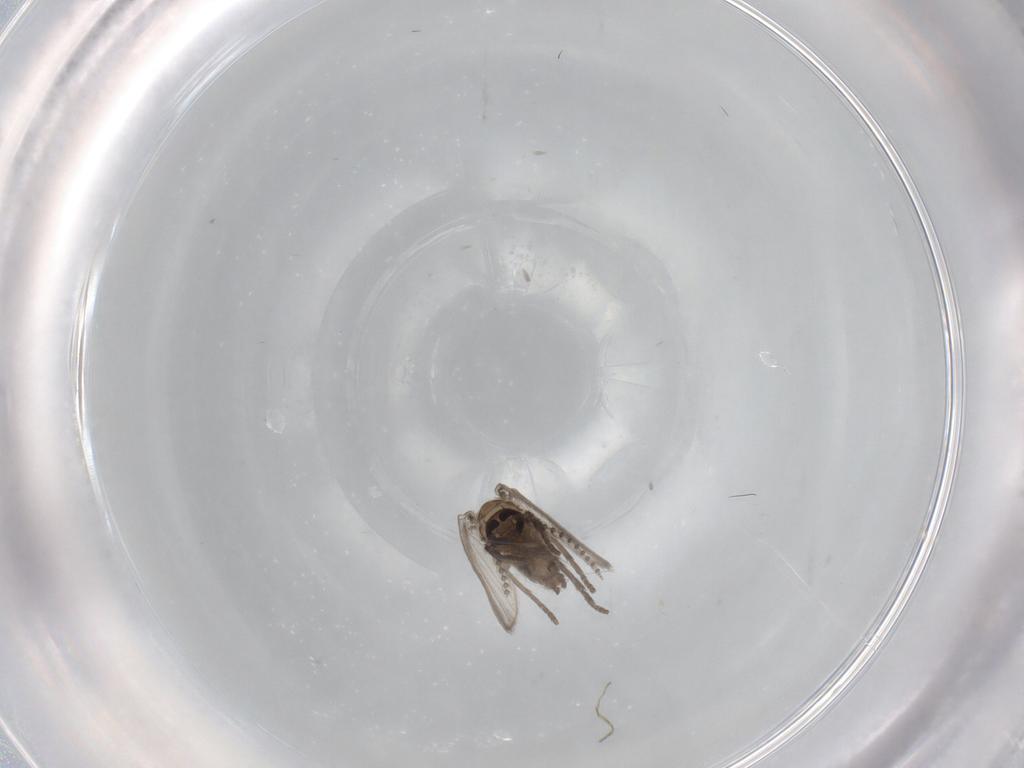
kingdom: Animalia
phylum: Arthropoda
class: Insecta
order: Diptera
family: Psychodidae
